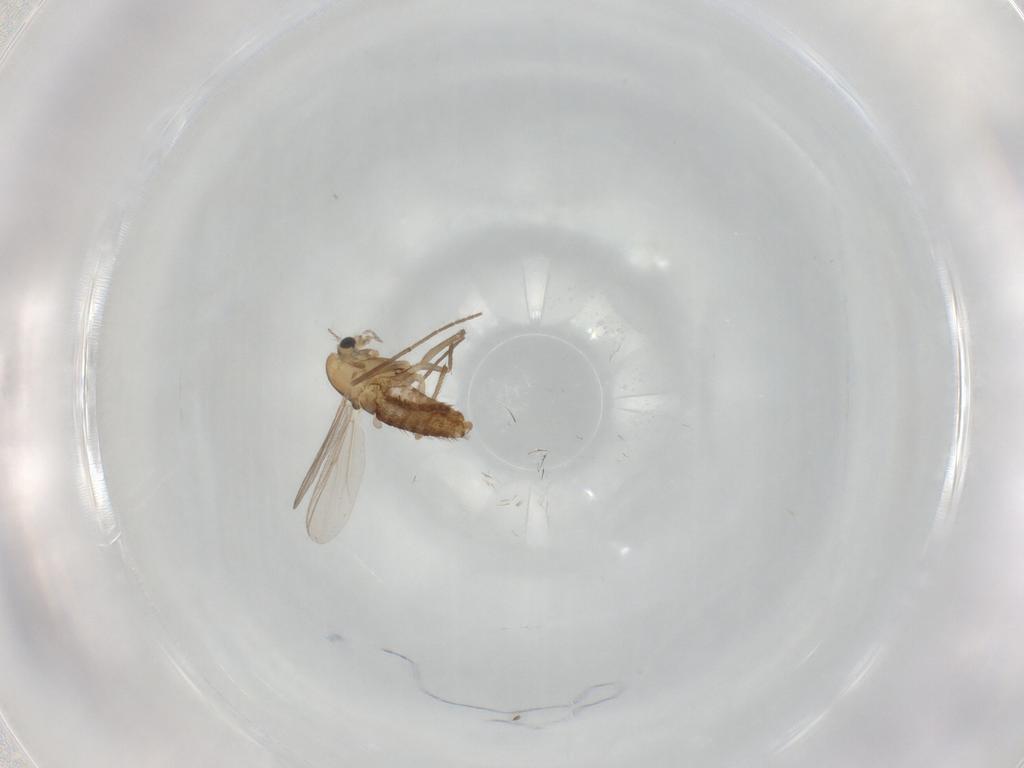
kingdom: Animalia
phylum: Arthropoda
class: Insecta
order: Diptera
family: Chironomidae
